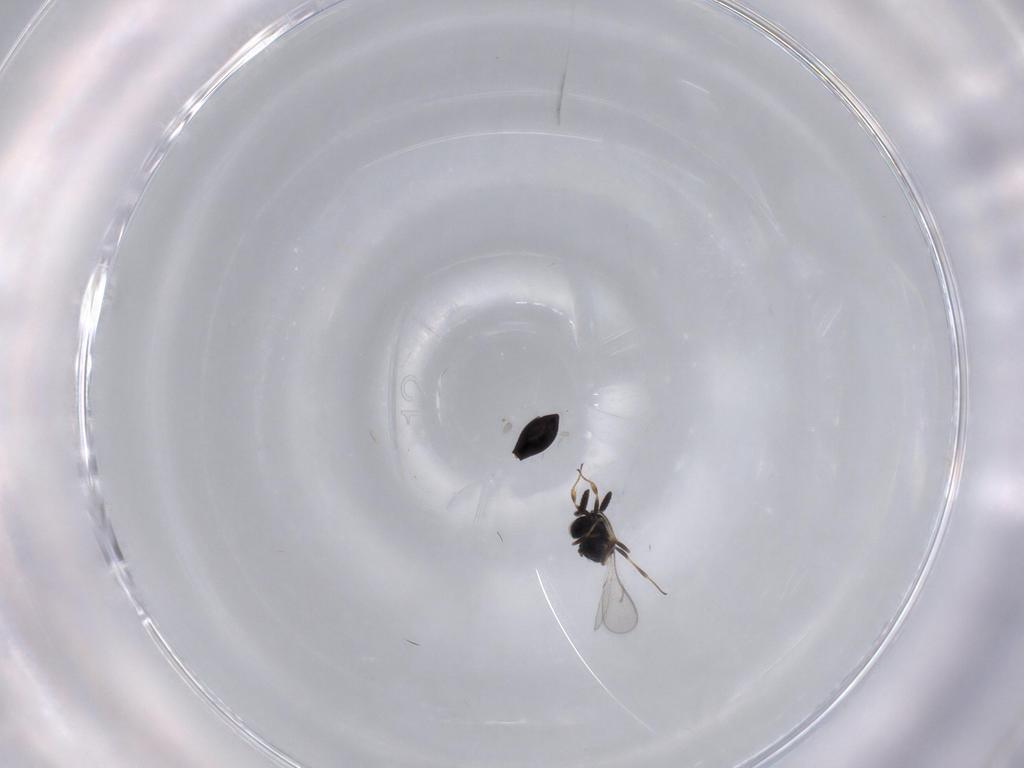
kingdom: Animalia
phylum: Arthropoda
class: Insecta
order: Hymenoptera
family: Scelionidae
